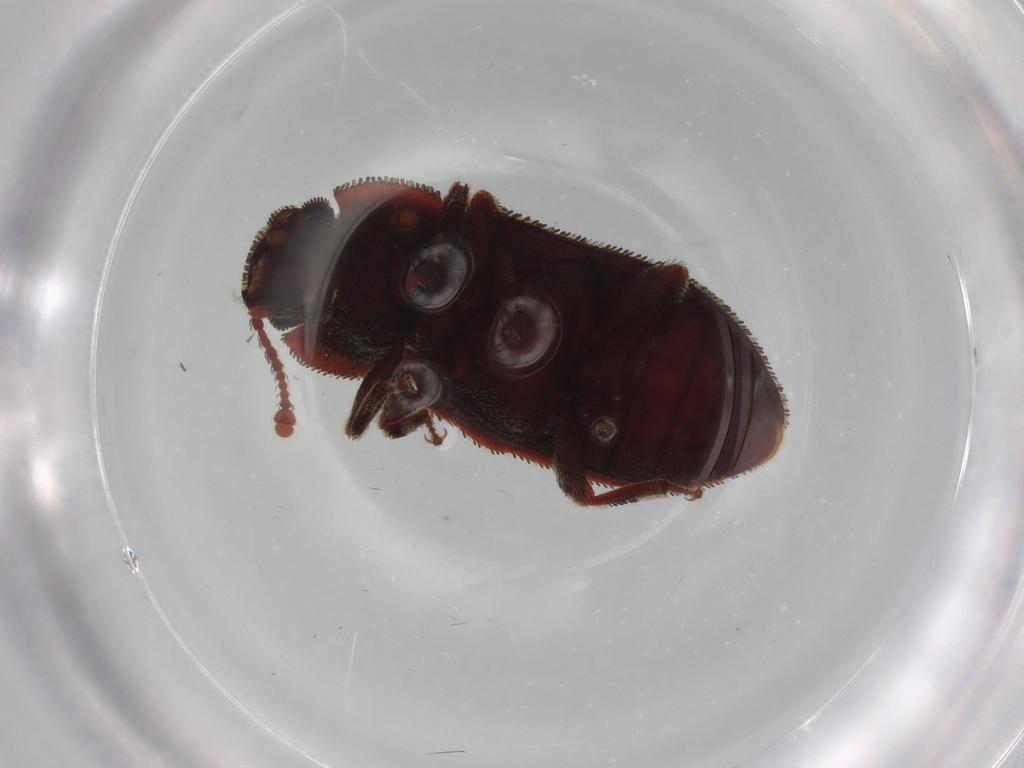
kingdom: Animalia
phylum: Arthropoda
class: Insecta
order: Coleoptera
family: Zopheridae
